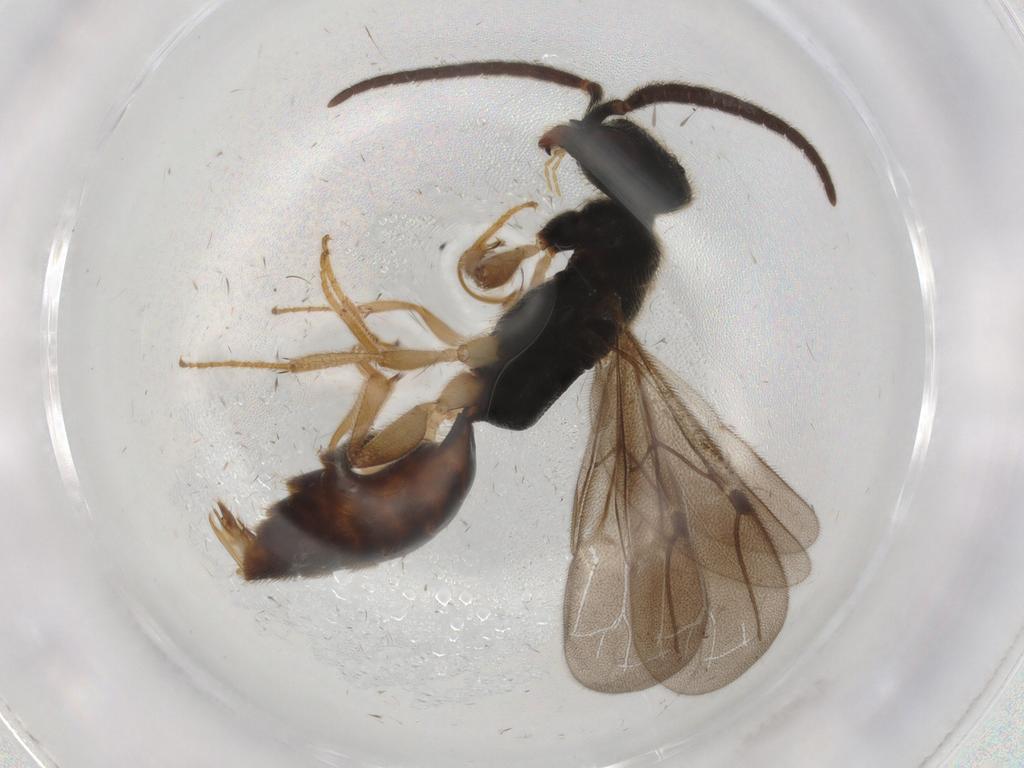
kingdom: Animalia
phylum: Arthropoda
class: Insecta
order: Hymenoptera
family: Bethylidae
